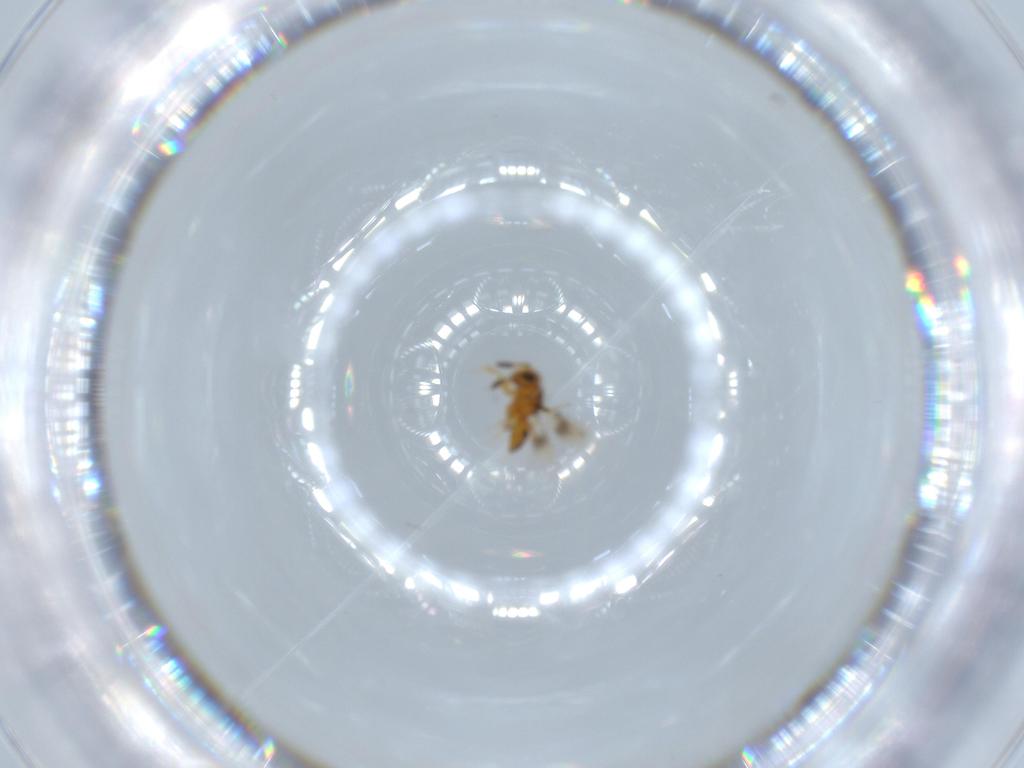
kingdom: Animalia
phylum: Arthropoda
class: Insecta
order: Hymenoptera
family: Scelionidae
